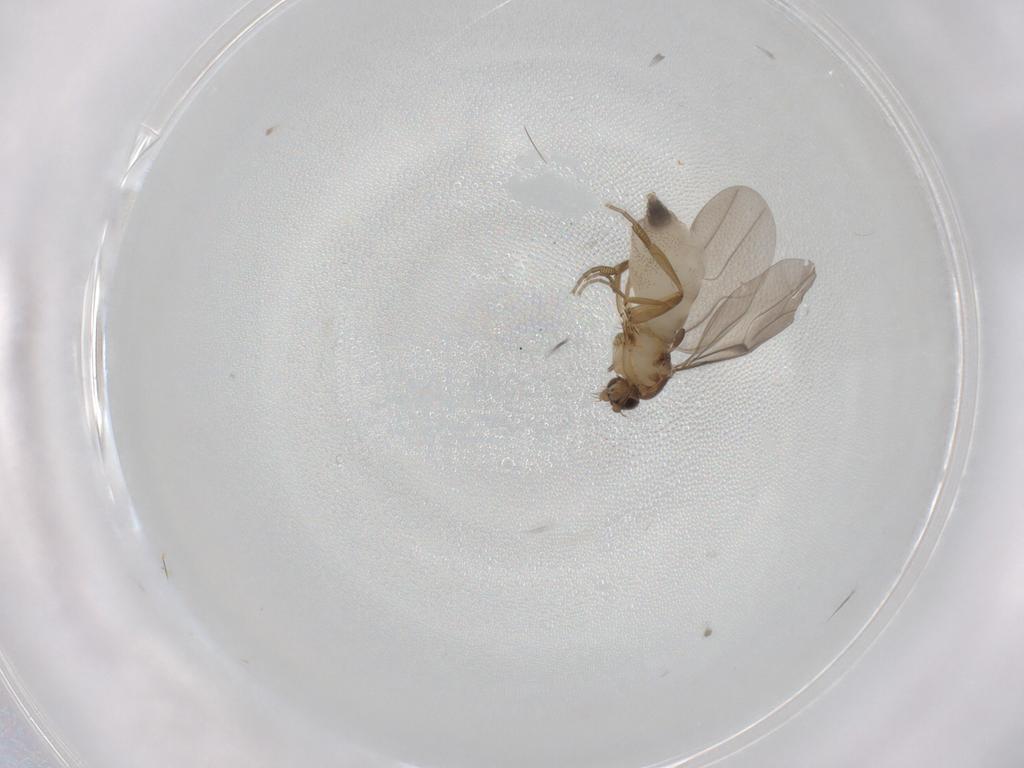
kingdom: Animalia
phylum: Arthropoda
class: Insecta
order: Diptera
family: Phoridae
